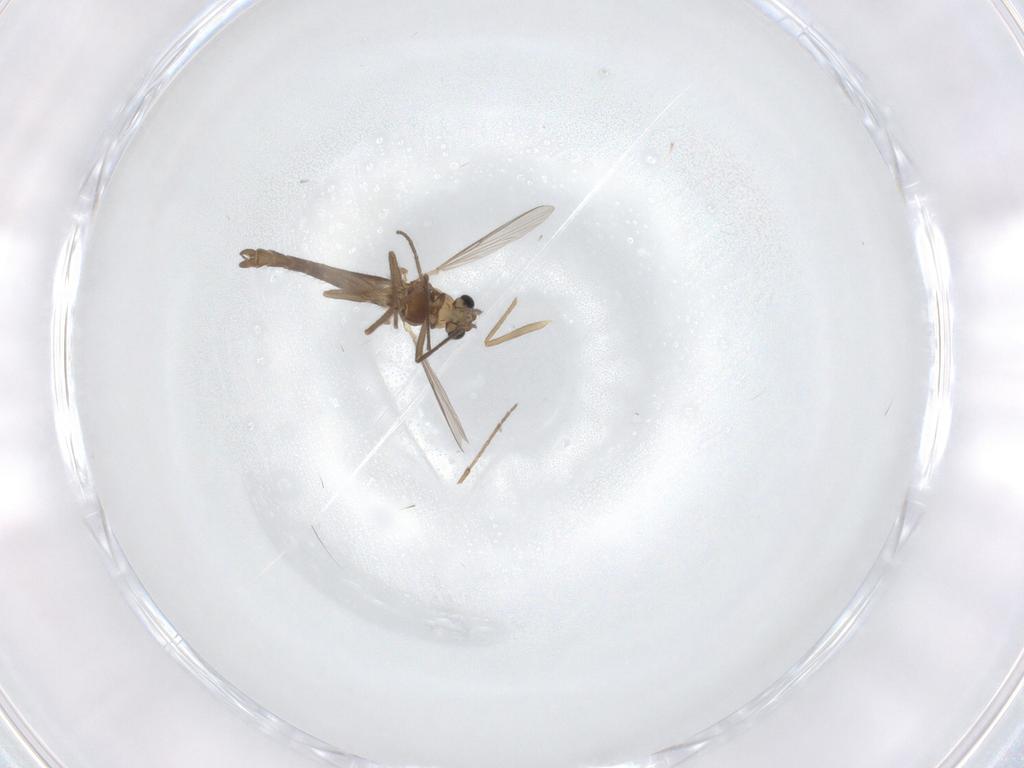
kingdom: Animalia
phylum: Arthropoda
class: Insecta
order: Diptera
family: Chironomidae
